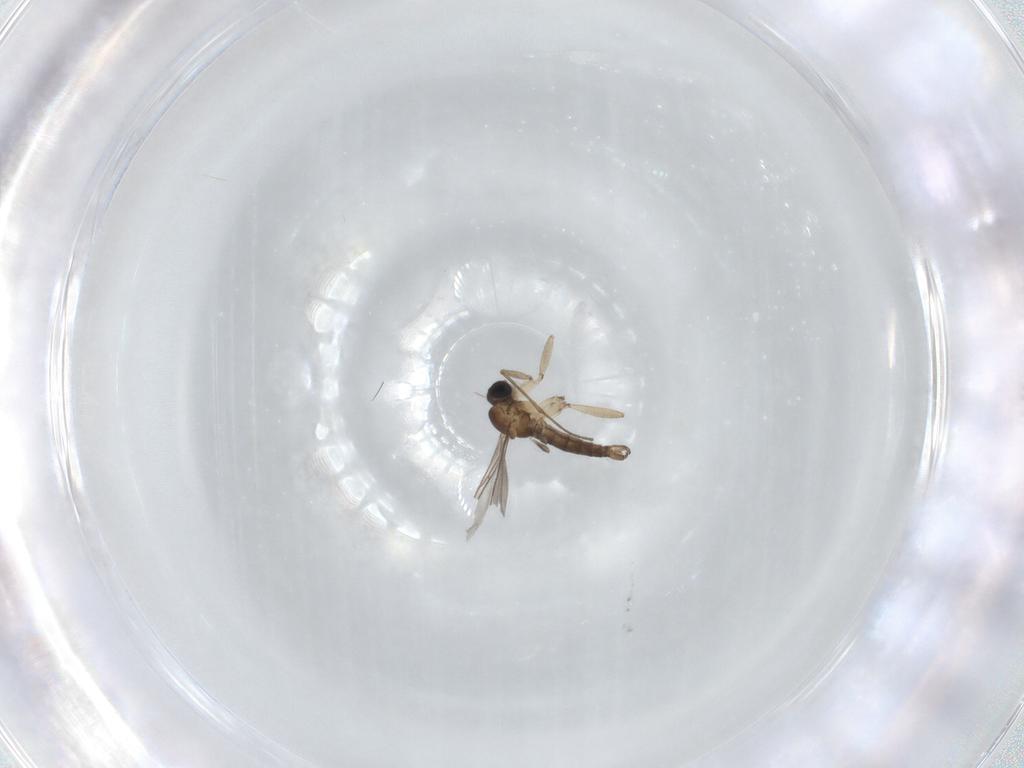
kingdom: Animalia
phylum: Arthropoda
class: Insecta
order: Diptera
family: Sciaridae
